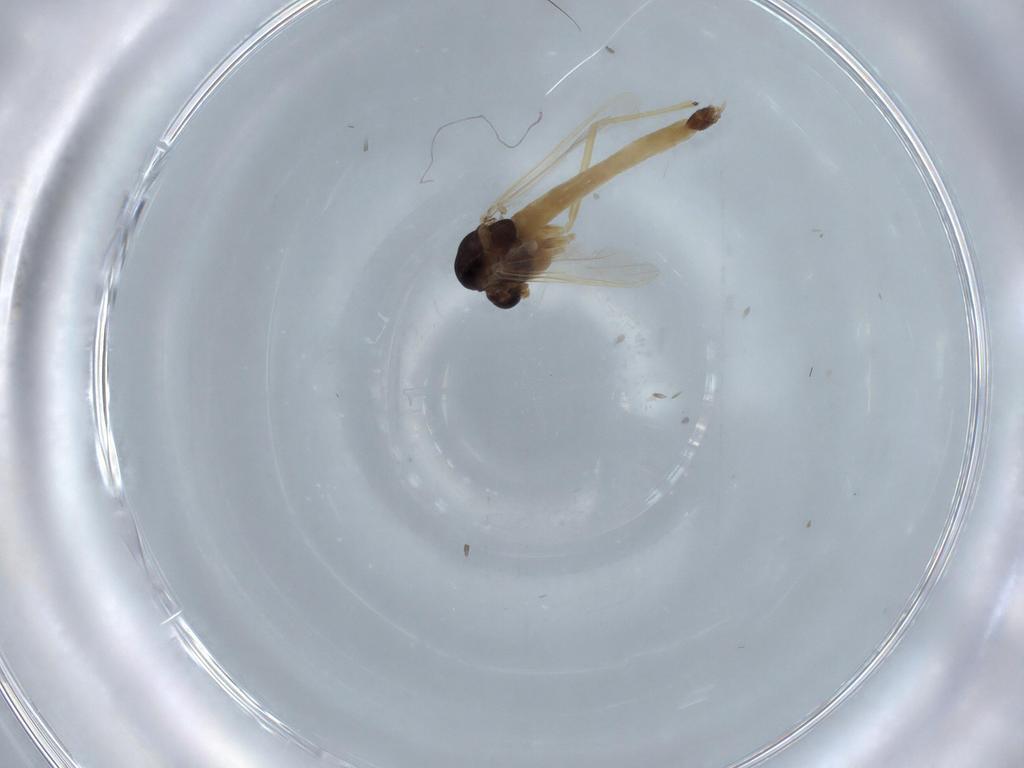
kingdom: Animalia
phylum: Arthropoda
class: Insecta
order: Diptera
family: Chironomidae
